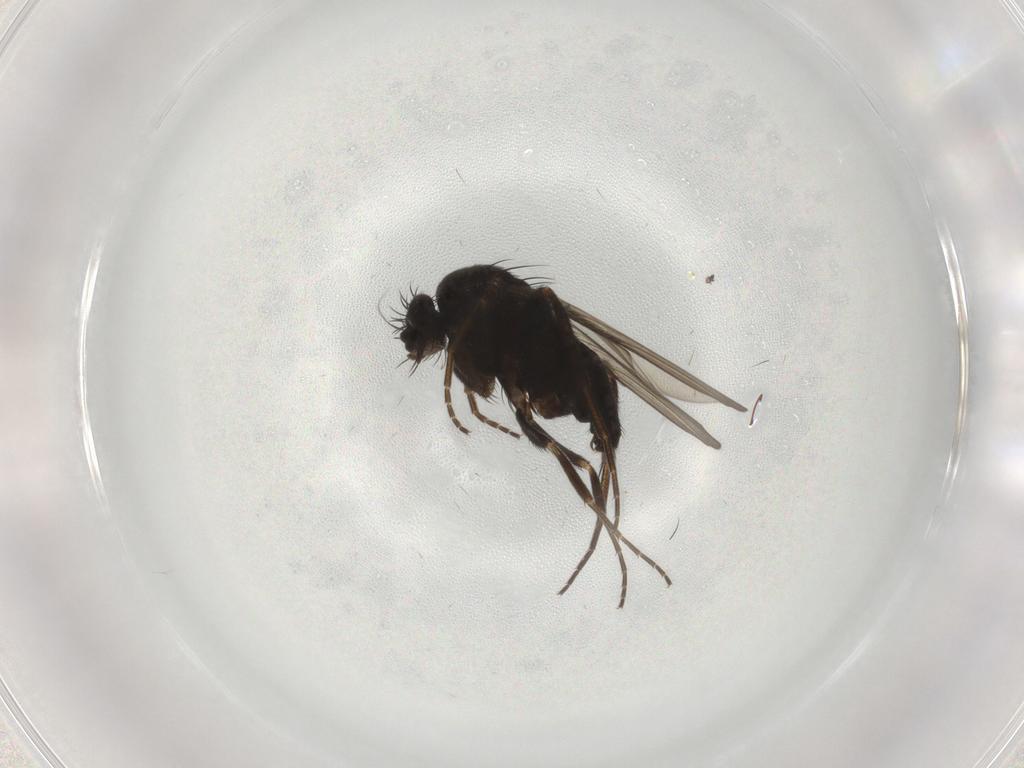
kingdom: Animalia
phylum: Arthropoda
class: Insecta
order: Diptera
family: Phoridae
